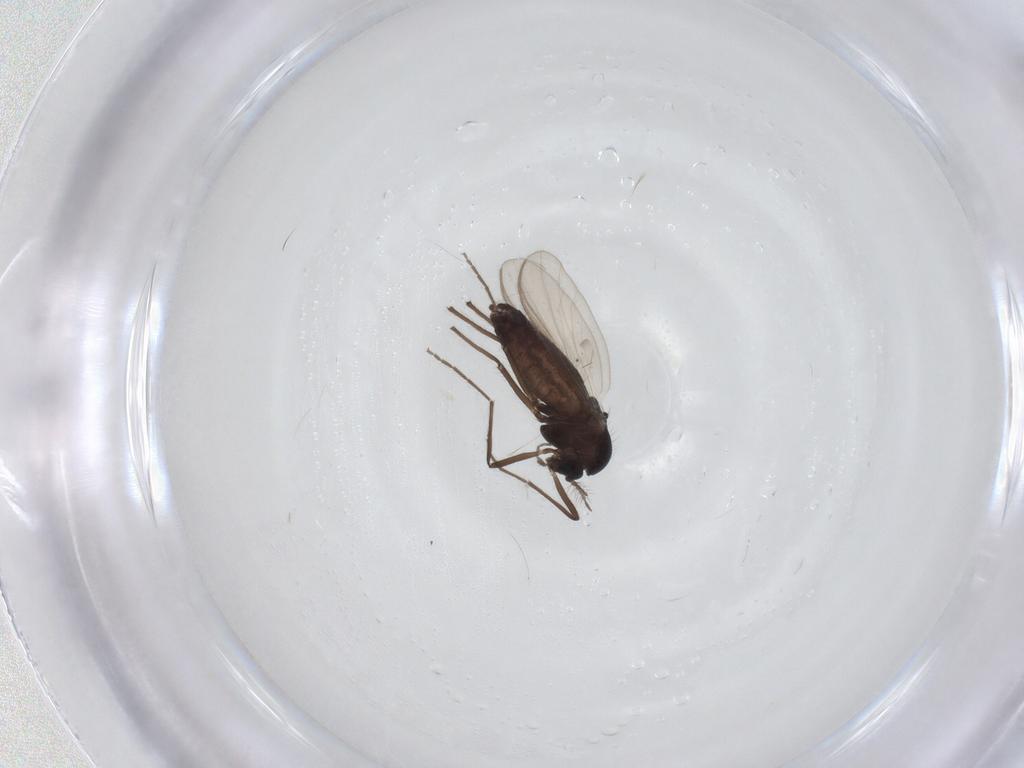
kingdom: Animalia
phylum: Arthropoda
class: Insecta
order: Diptera
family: Chironomidae
